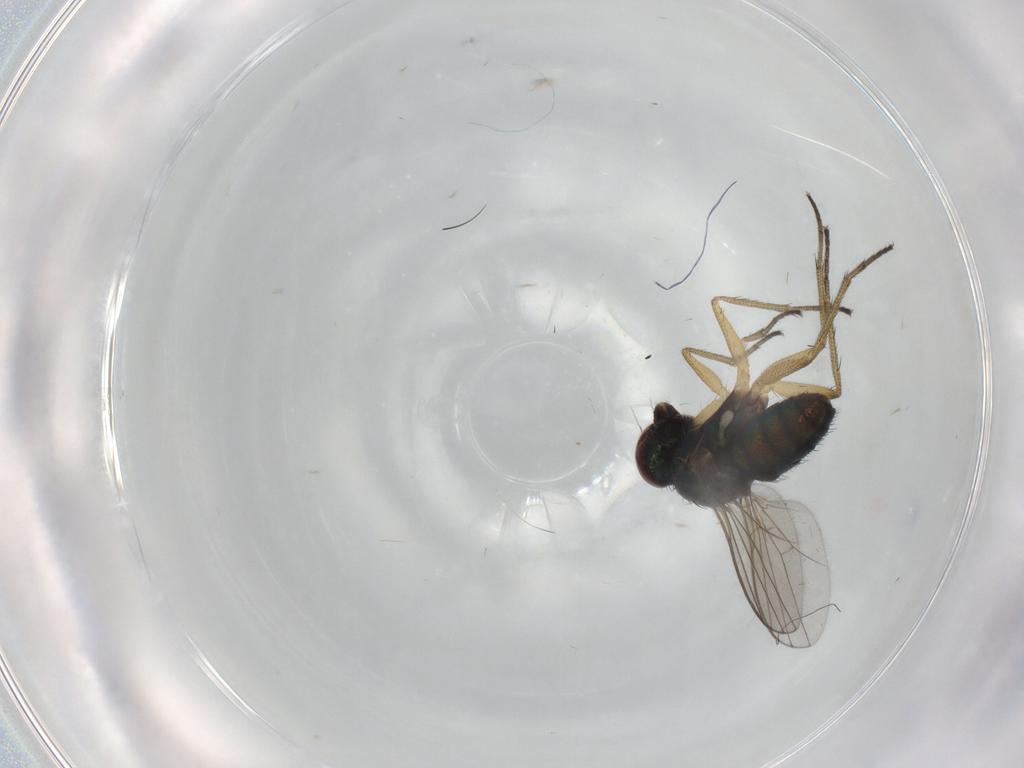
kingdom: Animalia
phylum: Arthropoda
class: Insecta
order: Diptera
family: Dolichopodidae
